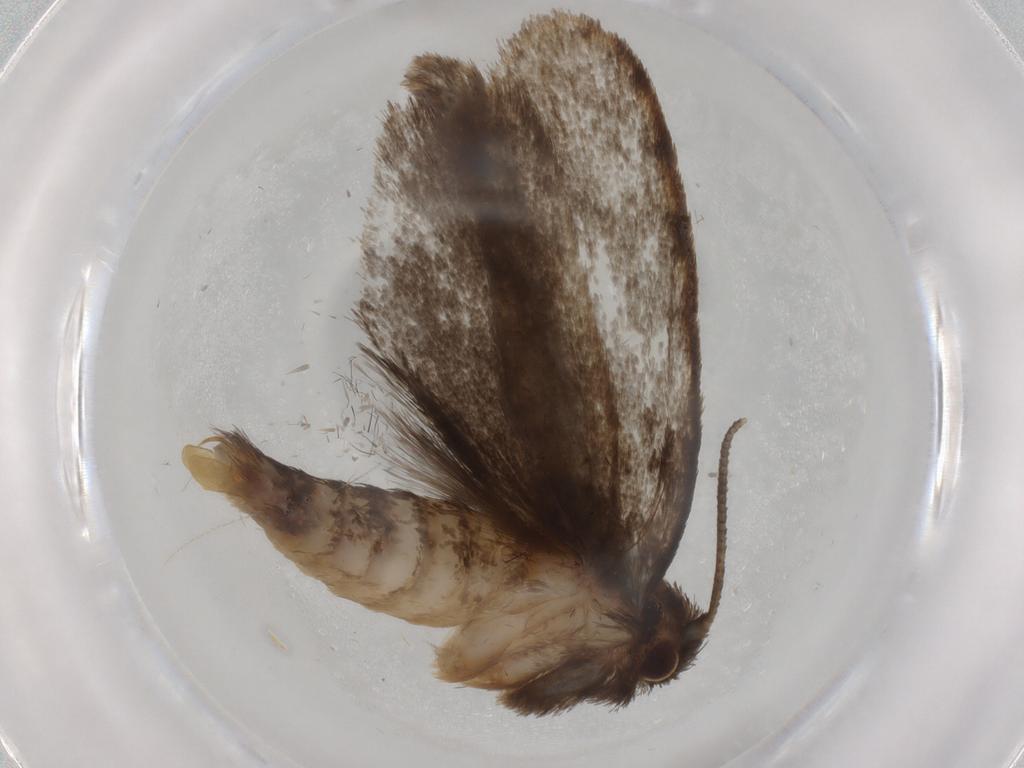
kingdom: Animalia
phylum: Arthropoda
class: Insecta
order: Lepidoptera
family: Tineidae
